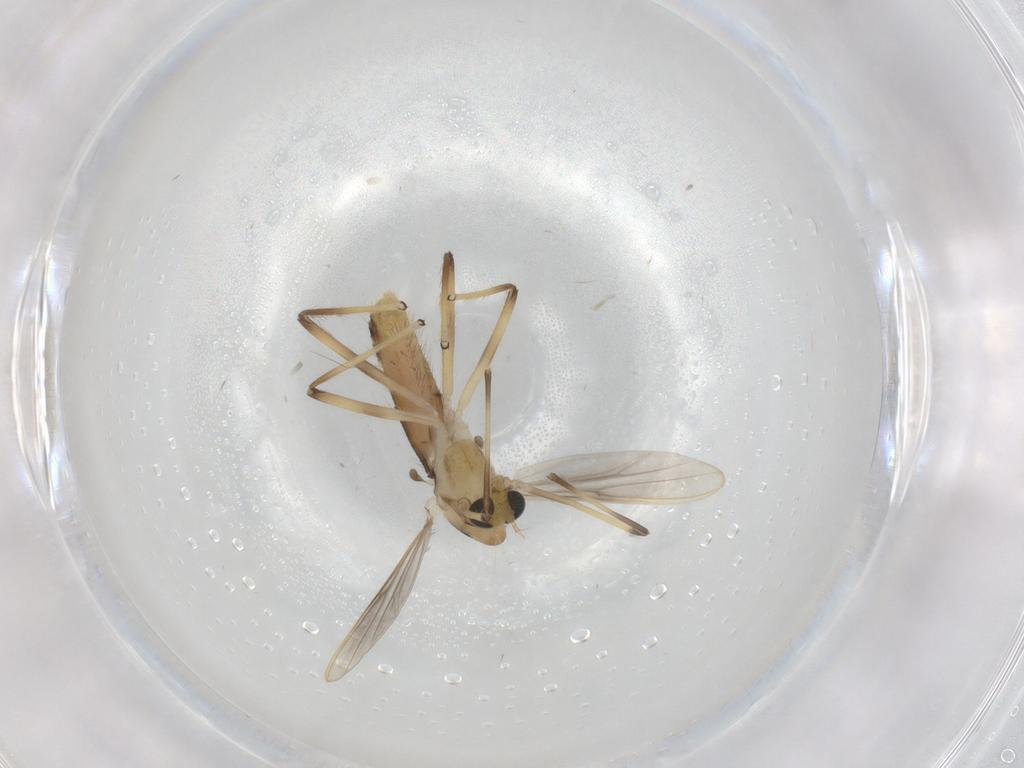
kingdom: Animalia
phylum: Arthropoda
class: Insecta
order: Diptera
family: Chironomidae
